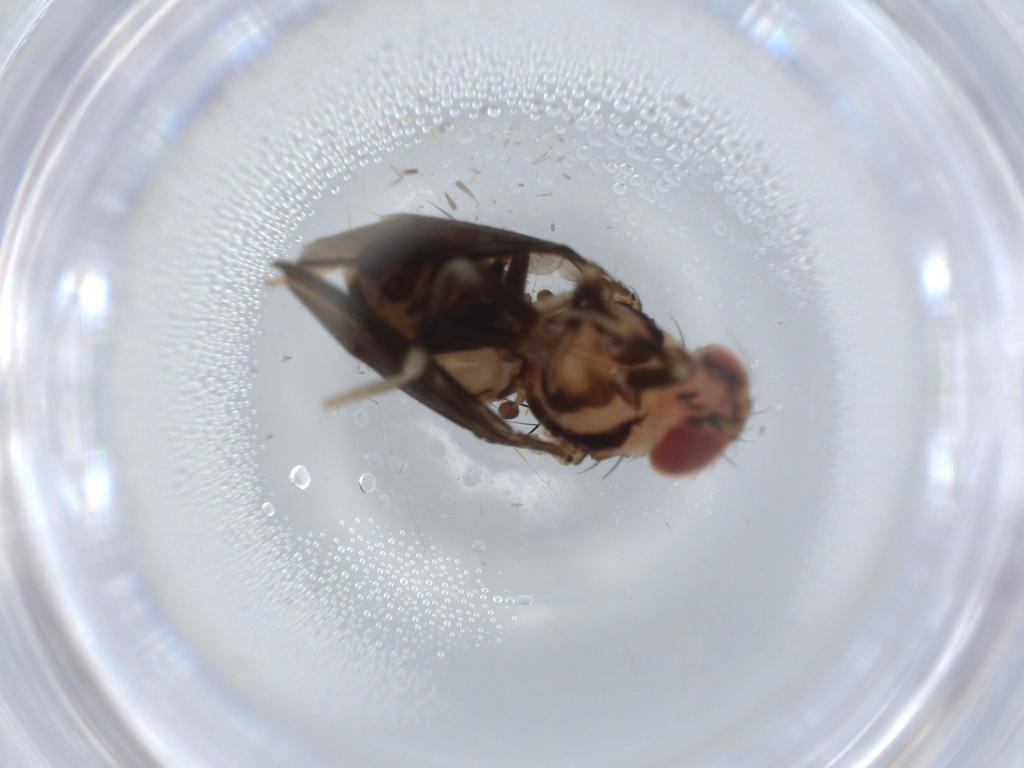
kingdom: Animalia
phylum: Arthropoda
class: Insecta
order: Diptera
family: Cecidomyiidae
